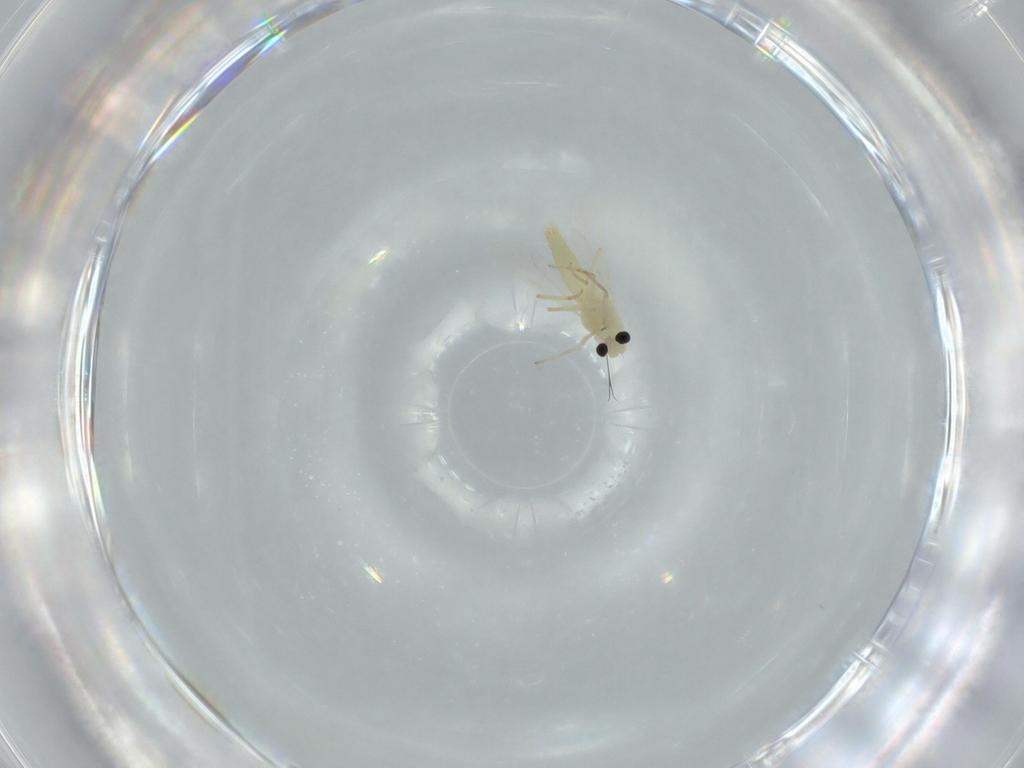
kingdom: Animalia
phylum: Arthropoda
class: Insecta
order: Diptera
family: Chironomidae
